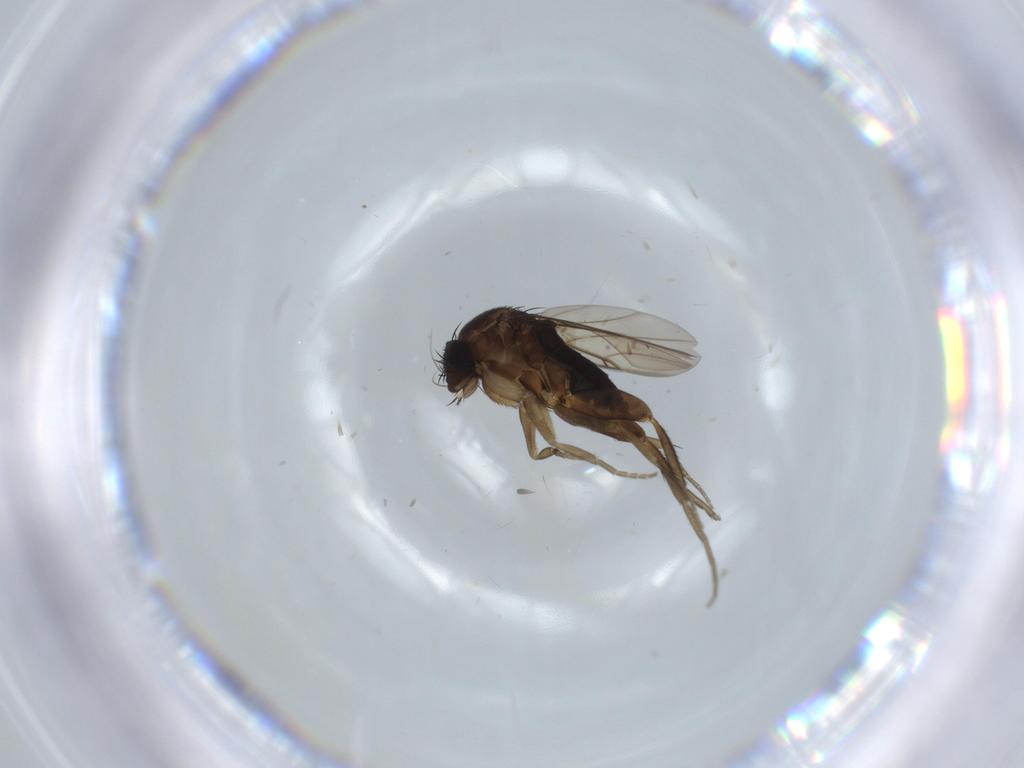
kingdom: Animalia
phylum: Arthropoda
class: Insecta
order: Diptera
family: Phoridae
